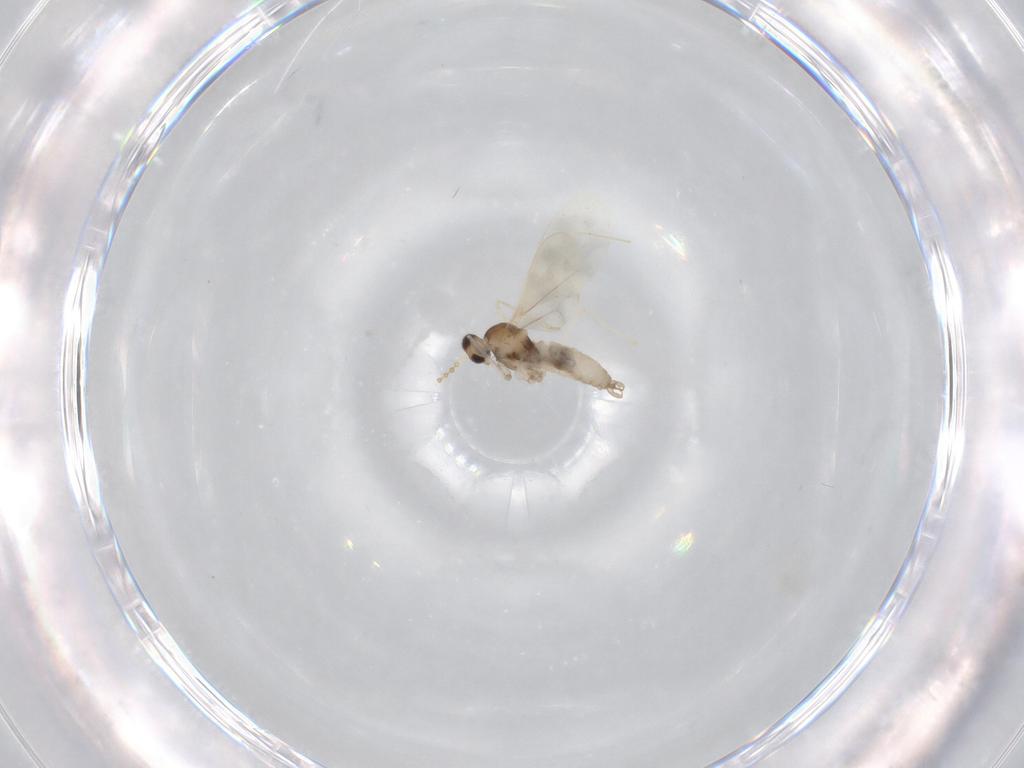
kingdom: Animalia
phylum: Arthropoda
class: Insecta
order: Diptera
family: Cecidomyiidae
